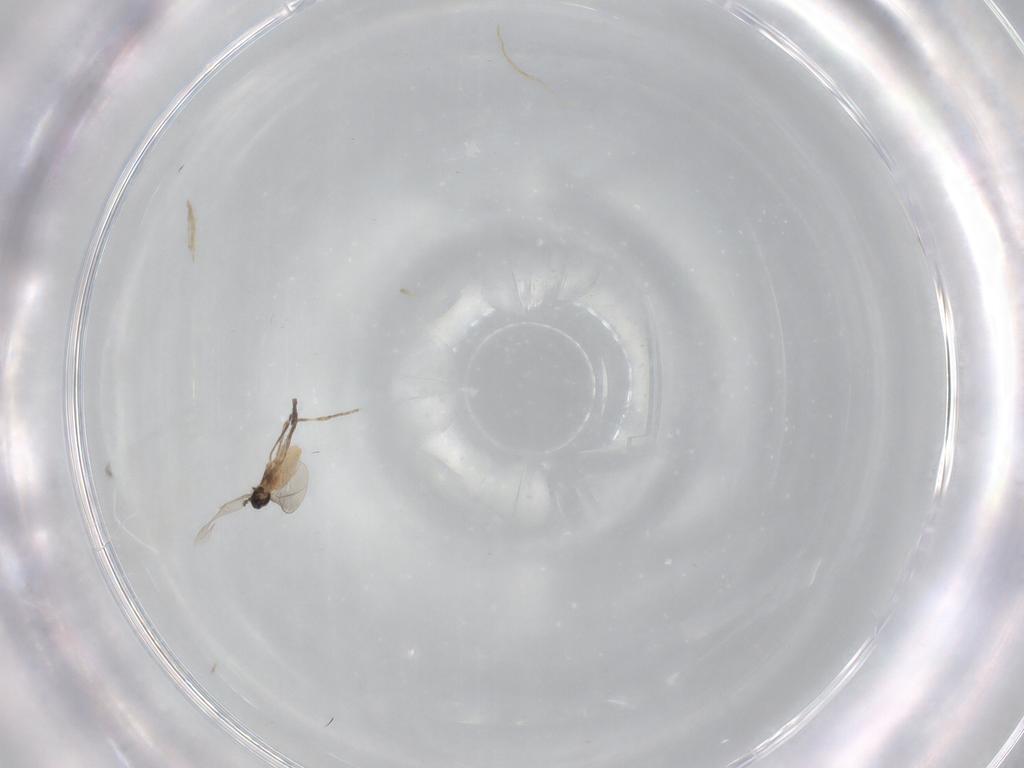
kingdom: Animalia
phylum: Arthropoda
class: Insecta
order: Diptera
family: Cecidomyiidae
